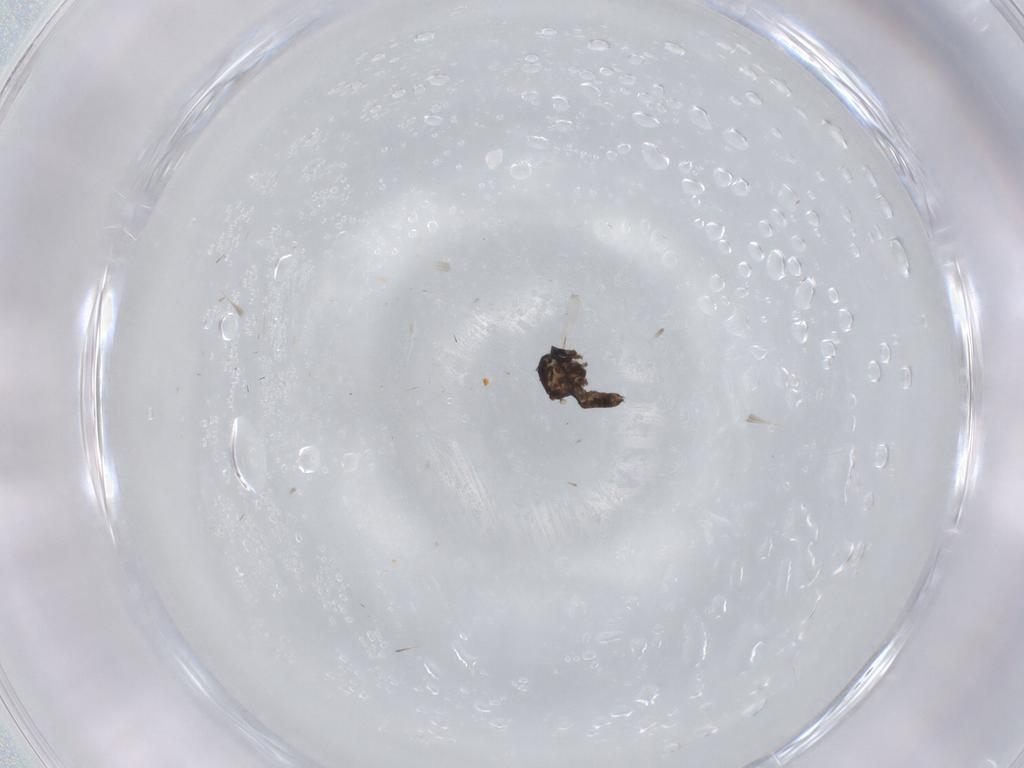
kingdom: Animalia
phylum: Arthropoda
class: Insecta
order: Diptera
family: Ceratopogonidae
